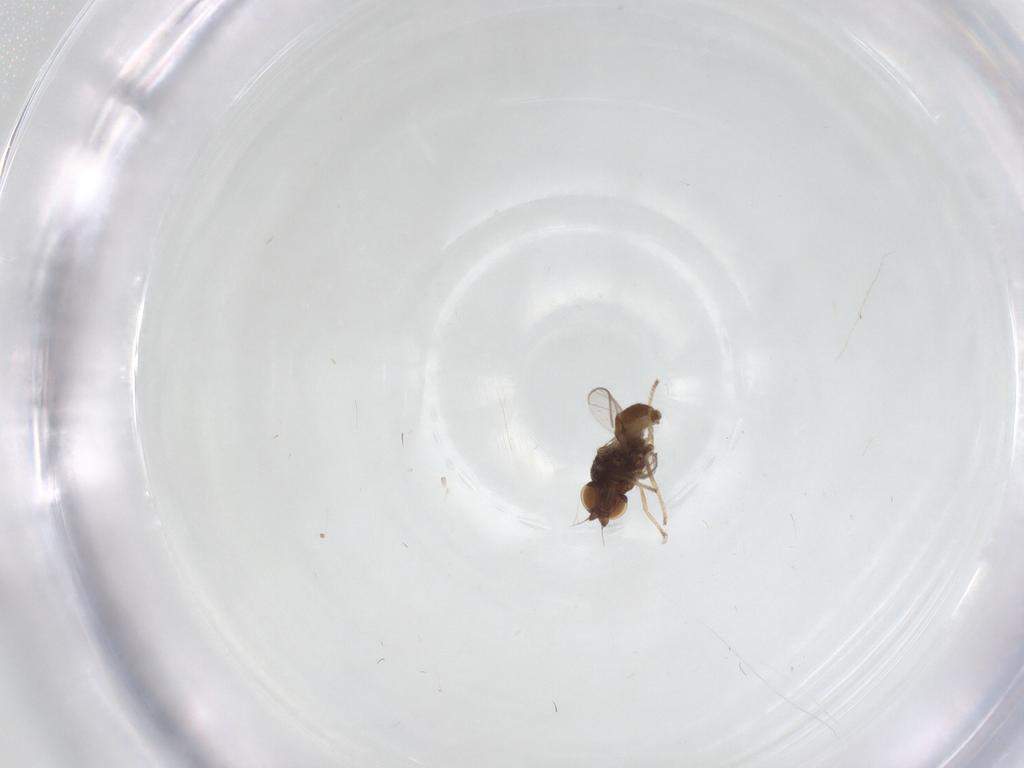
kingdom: Animalia
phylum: Arthropoda
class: Insecta
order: Diptera
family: Chloropidae
